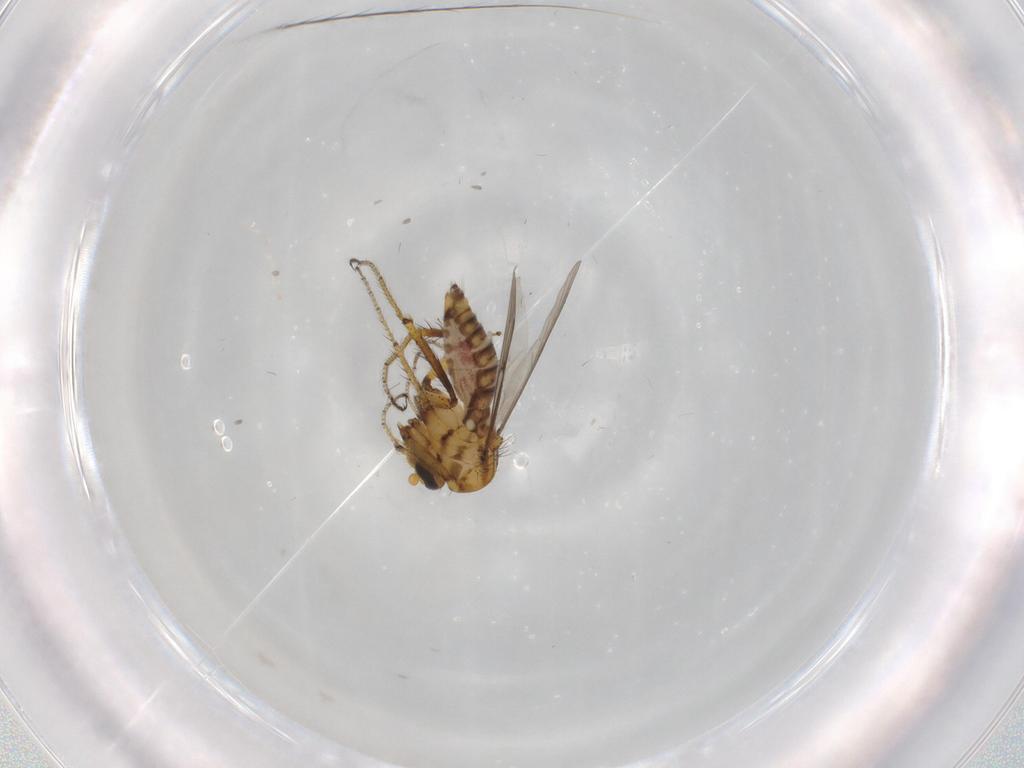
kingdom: Animalia
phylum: Arthropoda
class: Insecta
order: Diptera
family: Ceratopogonidae
